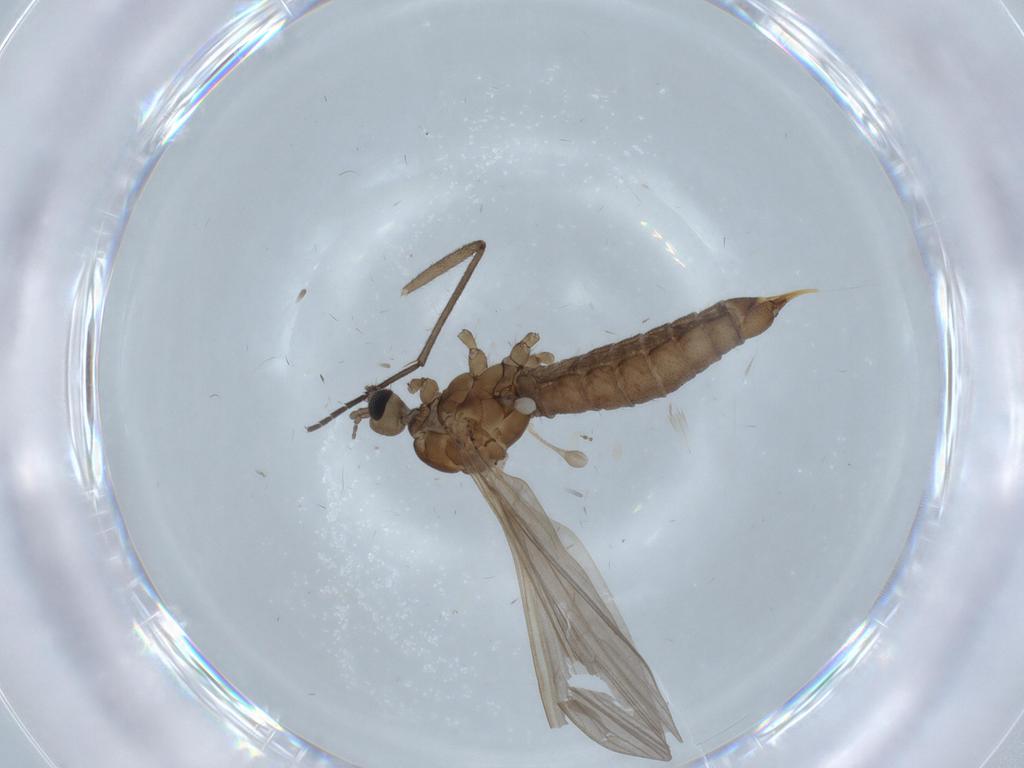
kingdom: Animalia
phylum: Arthropoda
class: Insecta
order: Diptera
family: Limoniidae
